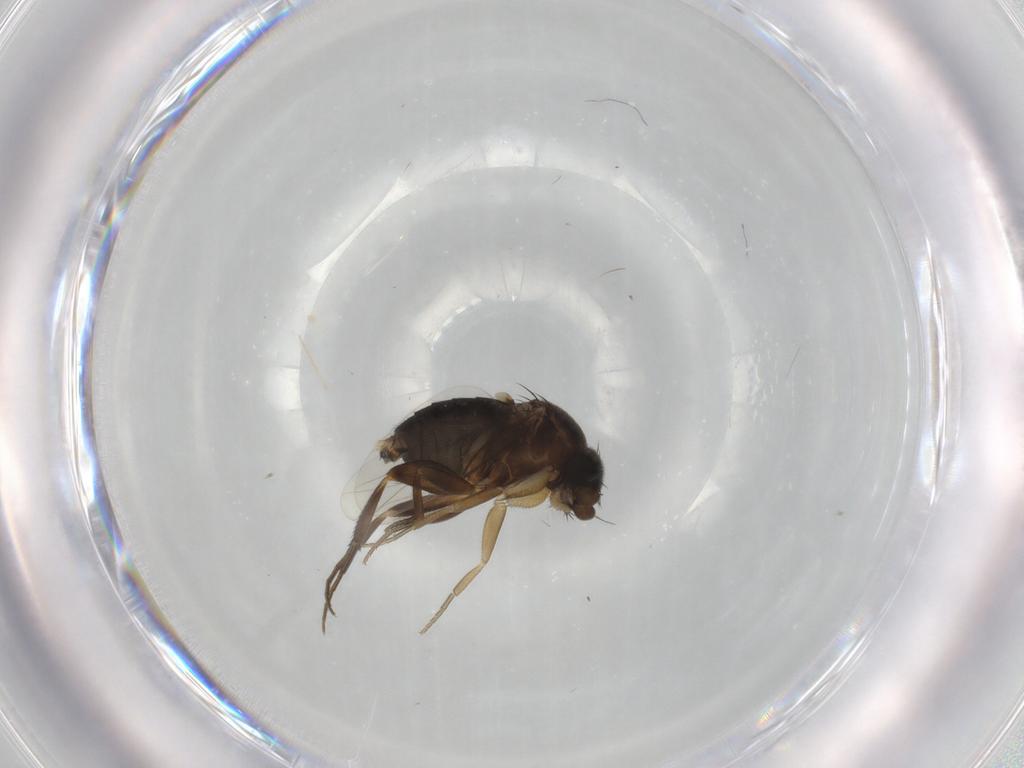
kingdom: Animalia
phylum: Arthropoda
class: Insecta
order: Diptera
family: Phoridae
